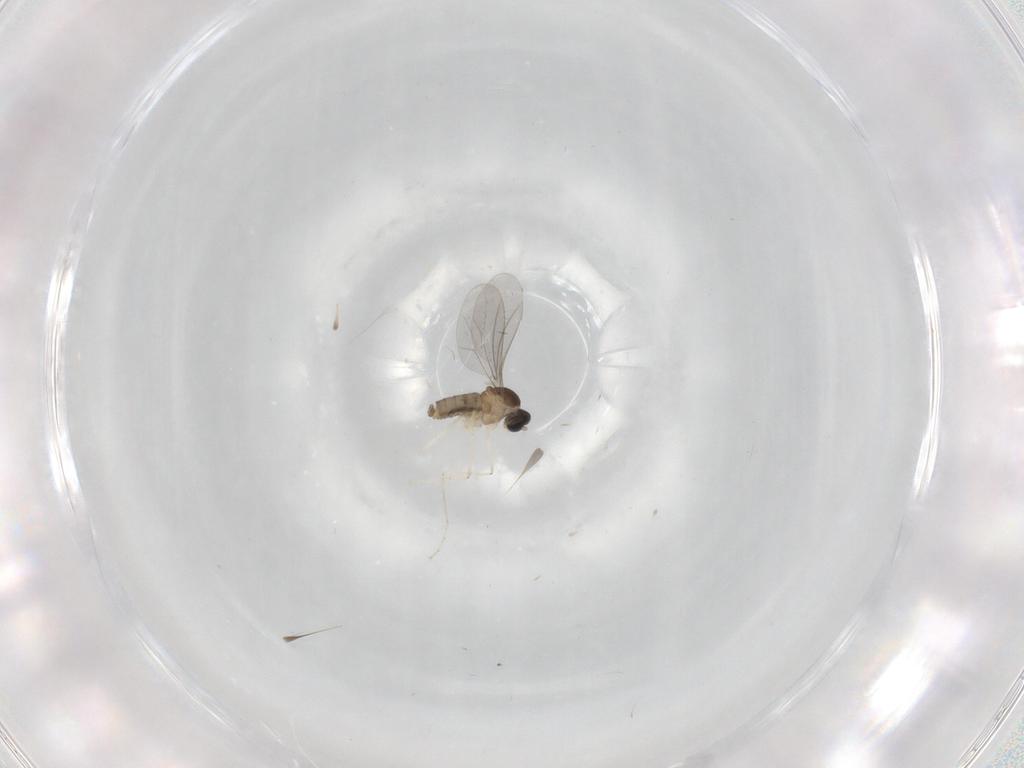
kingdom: Animalia
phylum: Arthropoda
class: Insecta
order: Diptera
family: Cecidomyiidae
